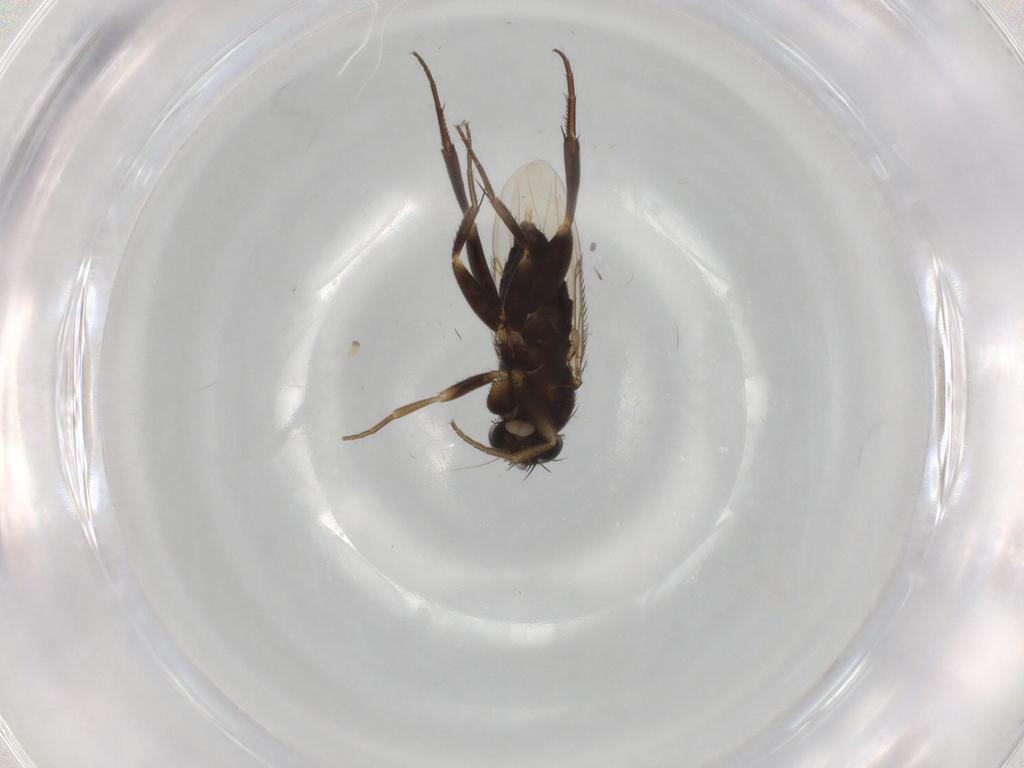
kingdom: Animalia
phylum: Arthropoda
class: Insecta
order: Diptera
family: Phoridae
